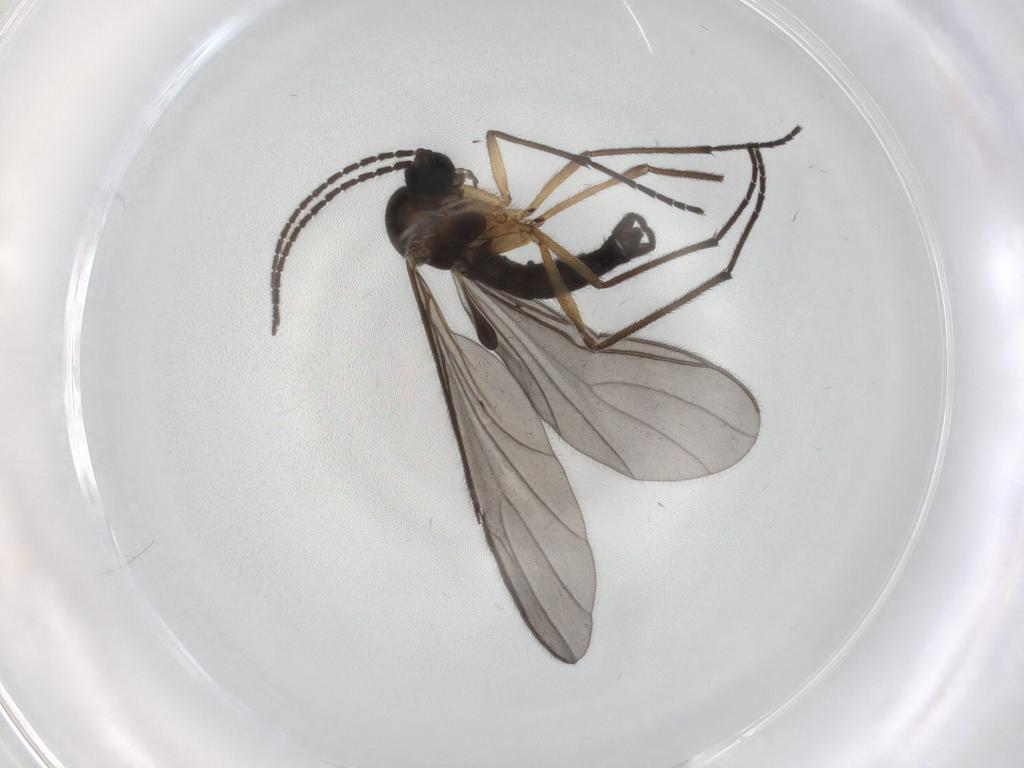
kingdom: Animalia
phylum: Arthropoda
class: Insecta
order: Diptera
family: Sciaridae
